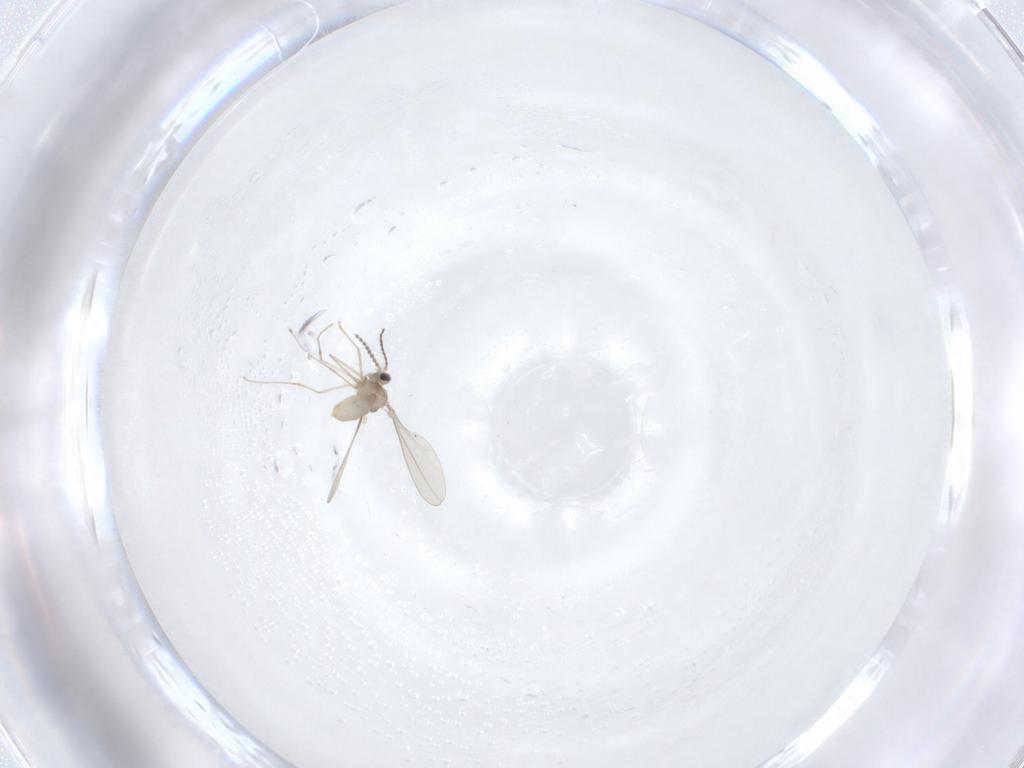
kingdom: Animalia
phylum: Arthropoda
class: Insecta
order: Diptera
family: Limoniidae
